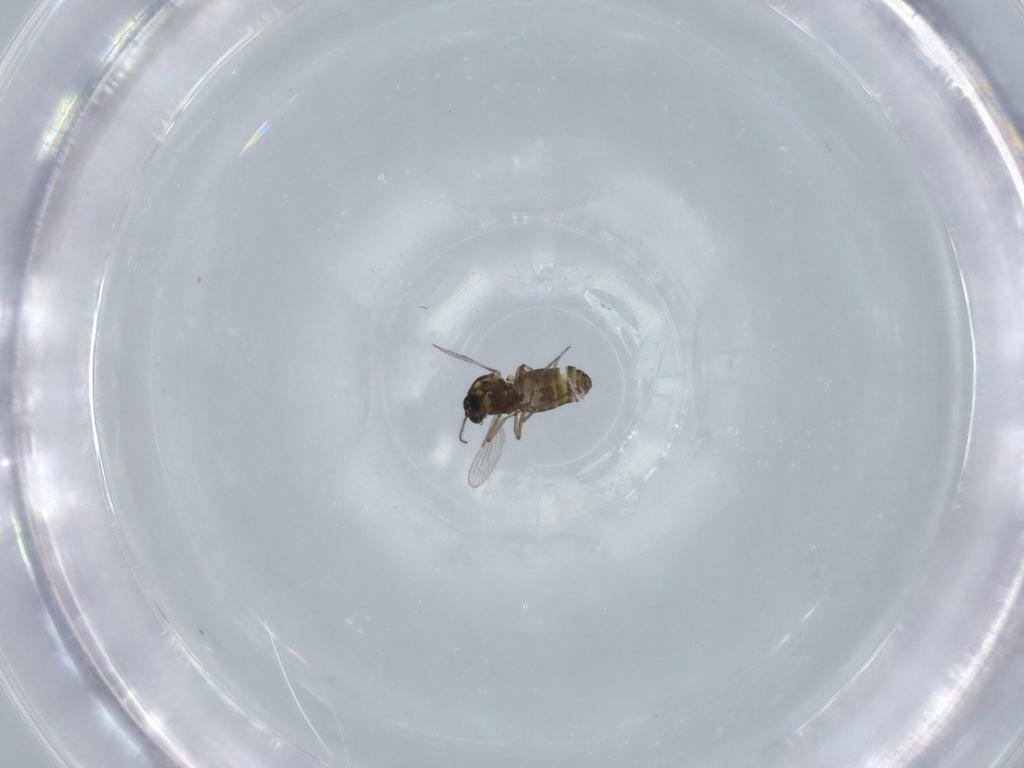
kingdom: Animalia
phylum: Arthropoda
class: Insecta
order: Diptera
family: Ceratopogonidae
